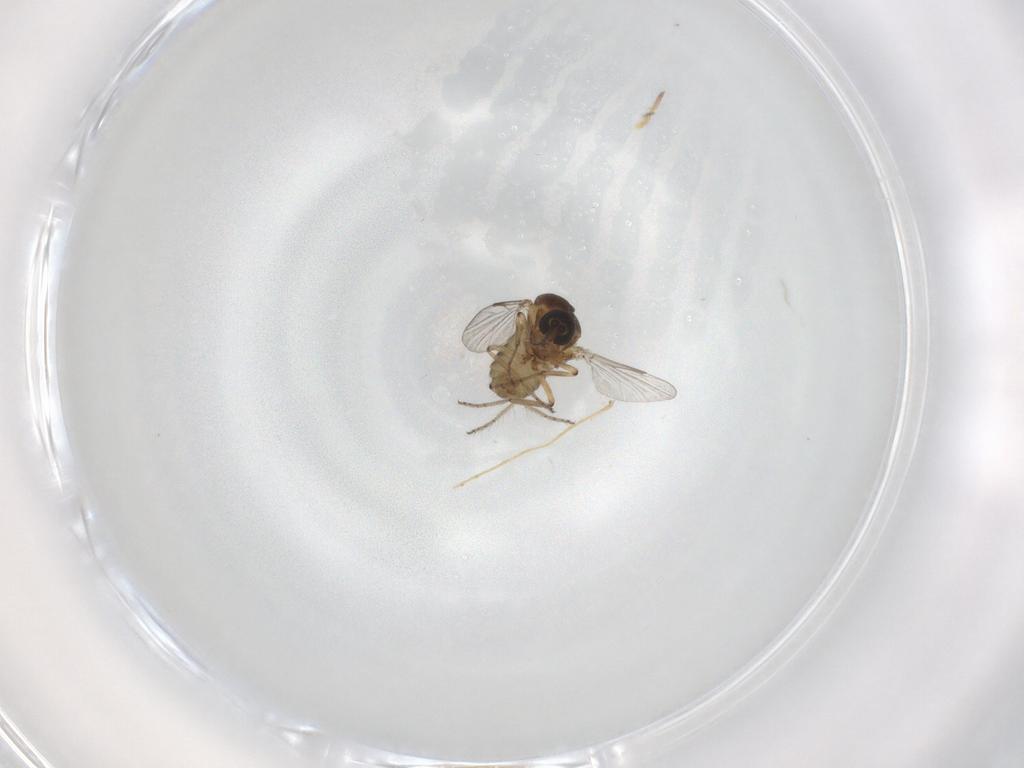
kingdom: Animalia
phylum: Arthropoda
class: Insecta
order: Diptera
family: Ceratopogonidae
